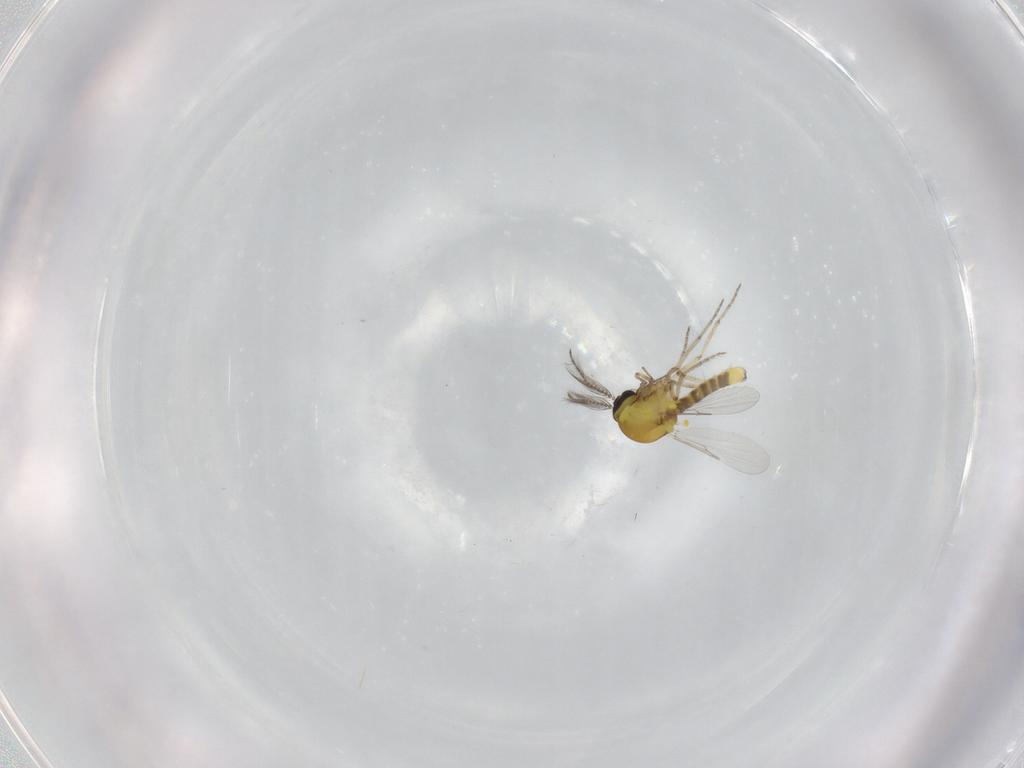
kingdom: Animalia
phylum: Arthropoda
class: Insecta
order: Diptera
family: Ceratopogonidae
